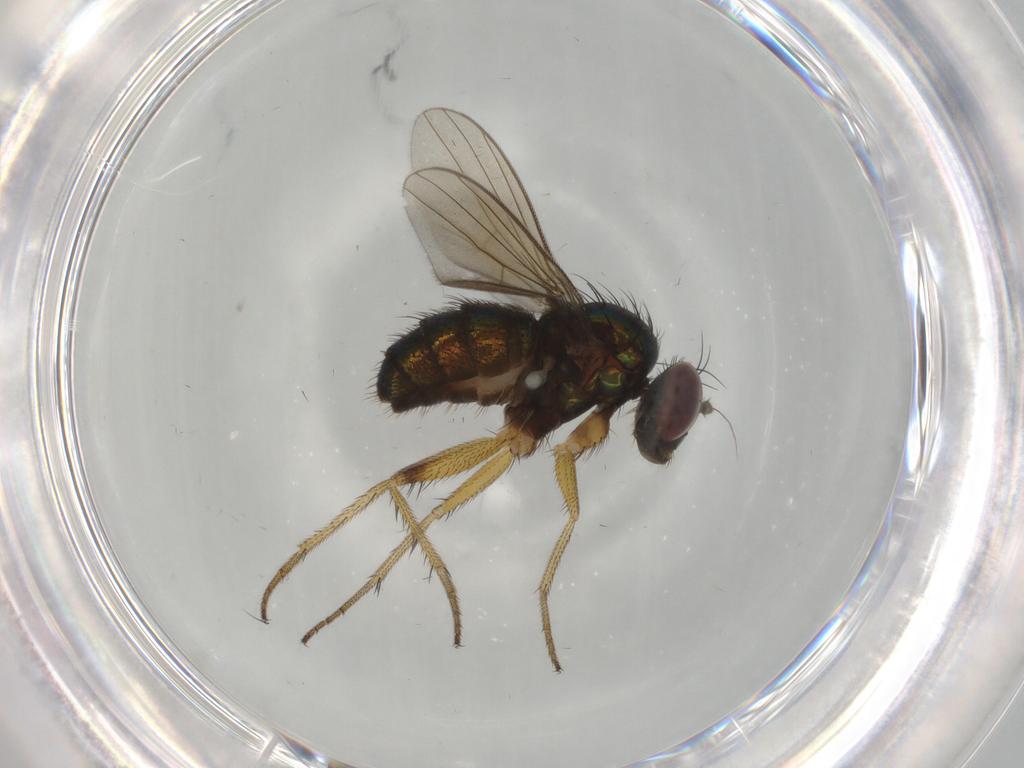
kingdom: Animalia
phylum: Arthropoda
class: Insecta
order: Diptera
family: Dolichopodidae
